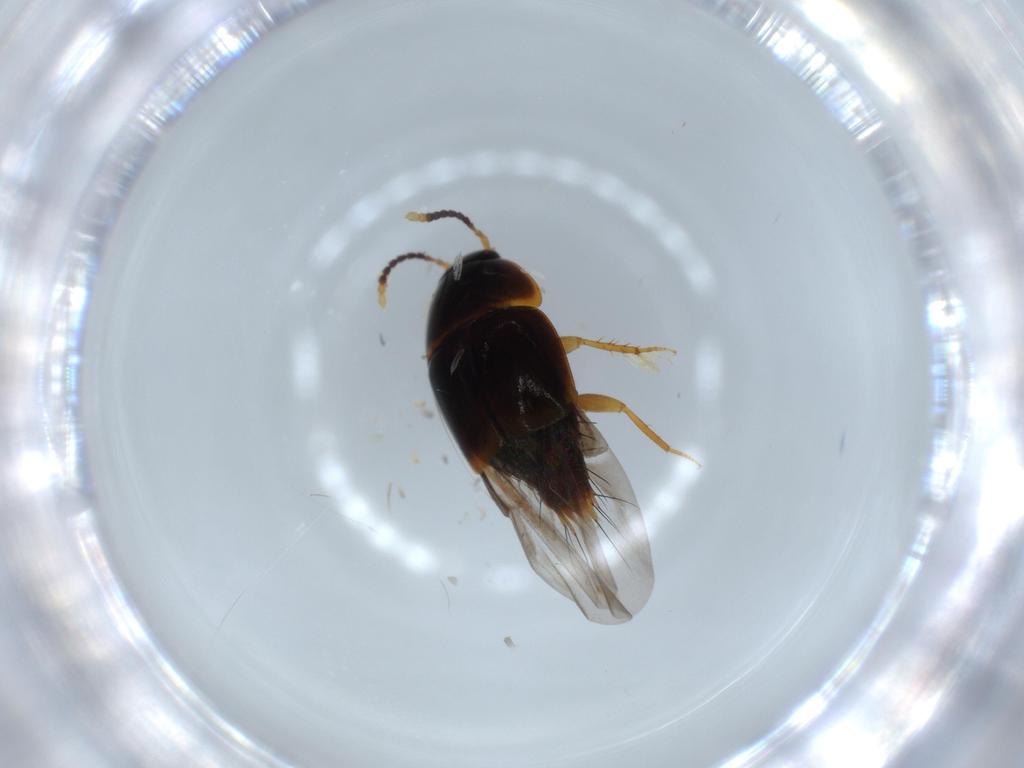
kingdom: Animalia
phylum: Arthropoda
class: Insecta
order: Coleoptera
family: Staphylinidae
